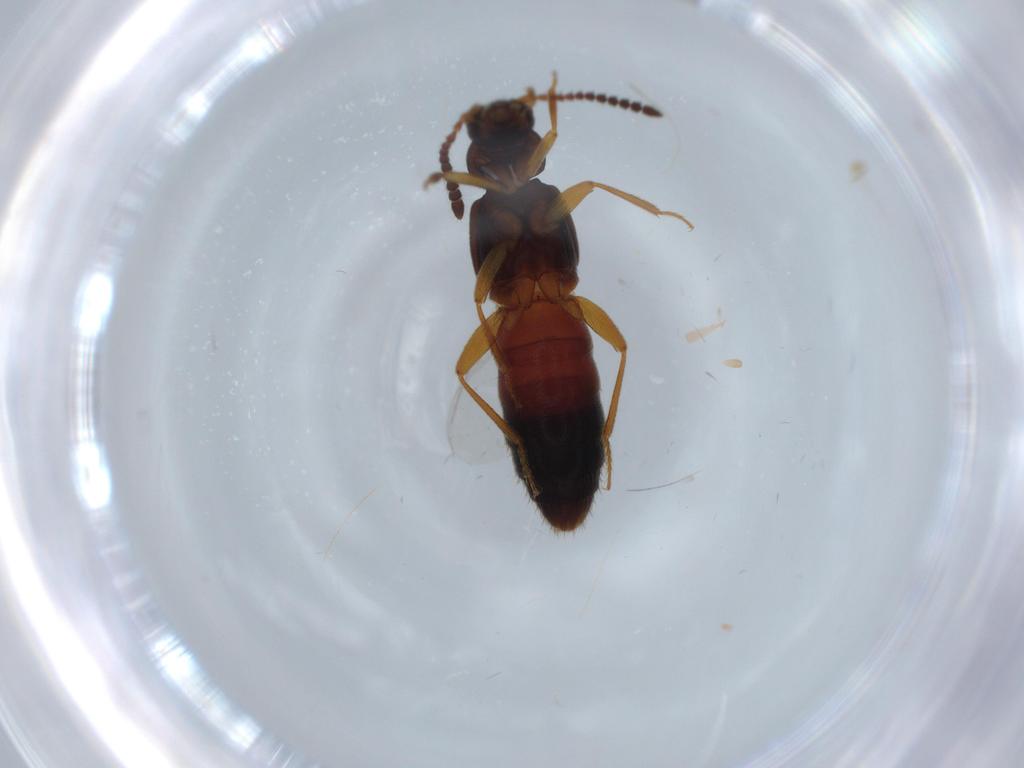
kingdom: Animalia
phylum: Arthropoda
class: Insecta
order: Coleoptera
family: Staphylinidae
